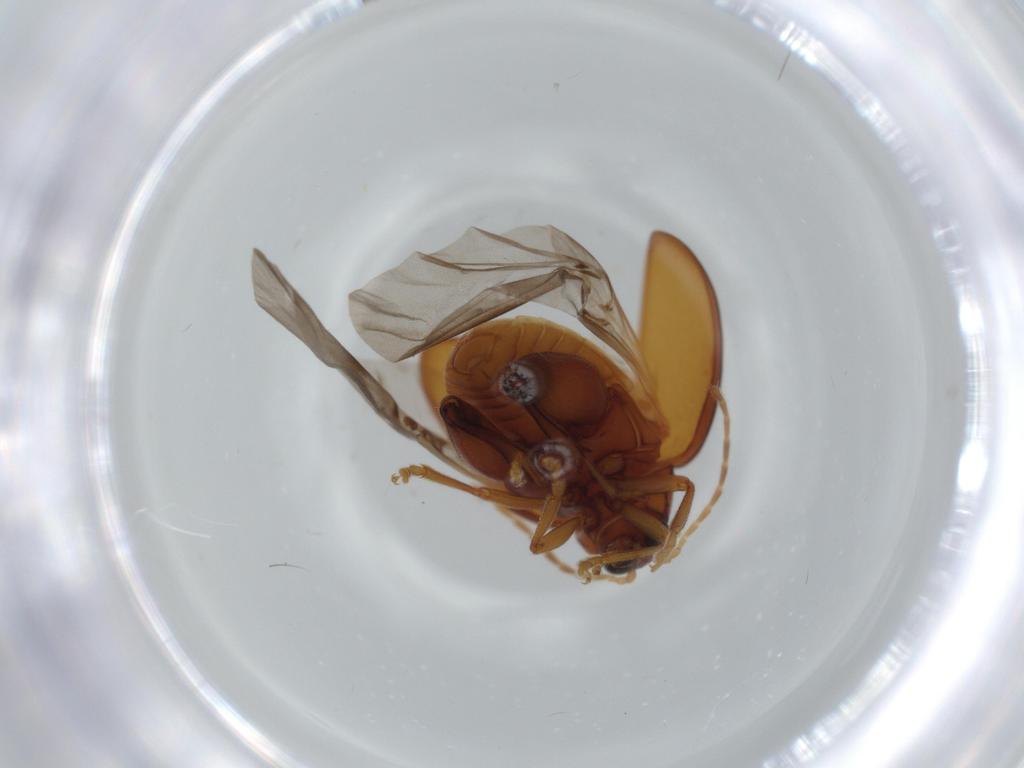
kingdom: Animalia
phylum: Arthropoda
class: Insecta
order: Coleoptera
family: Chrysomelidae
